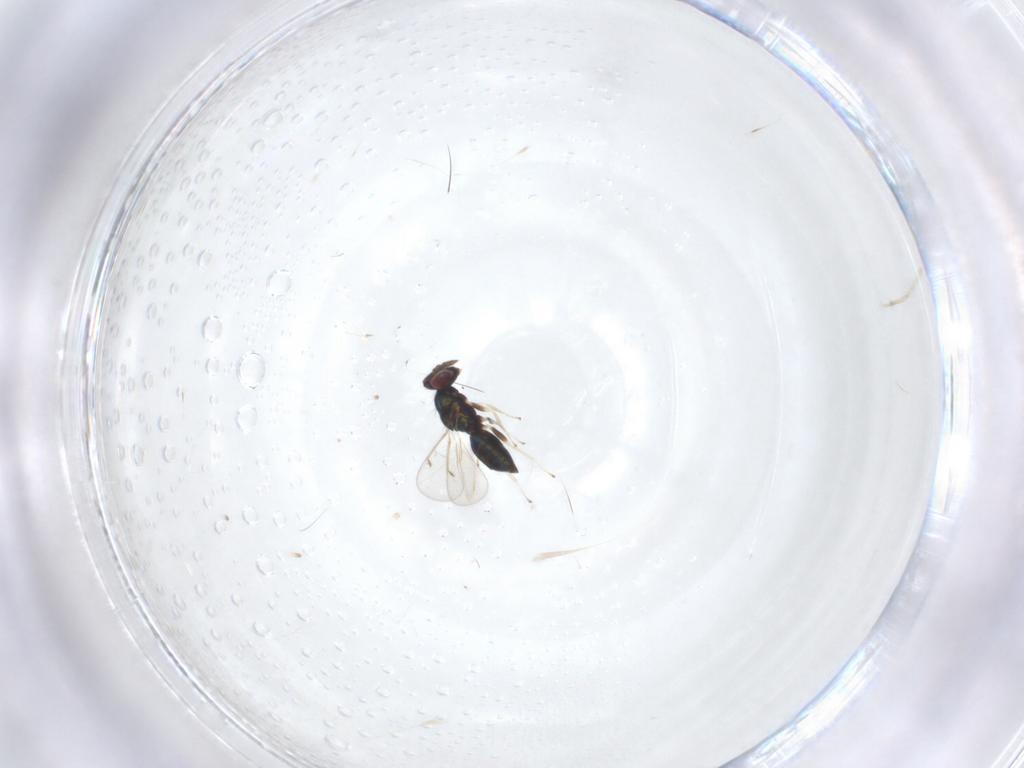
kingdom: Animalia
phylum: Arthropoda
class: Insecta
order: Hymenoptera
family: Eulophidae
